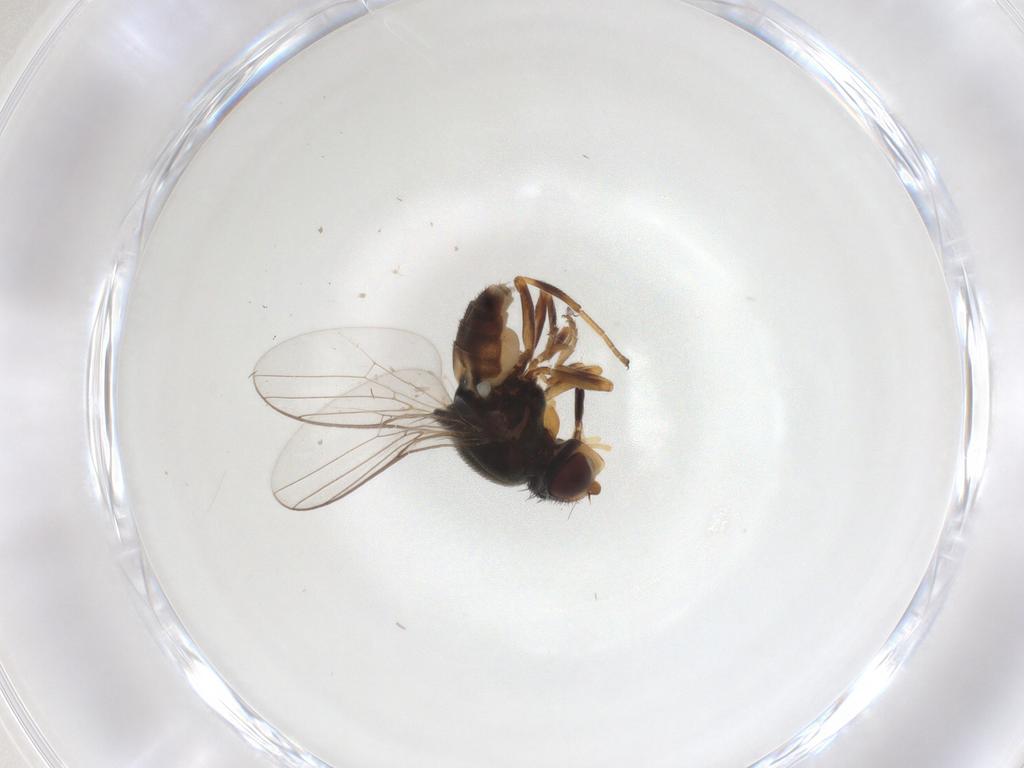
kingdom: Animalia
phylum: Arthropoda
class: Insecta
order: Diptera
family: Chloropidae
